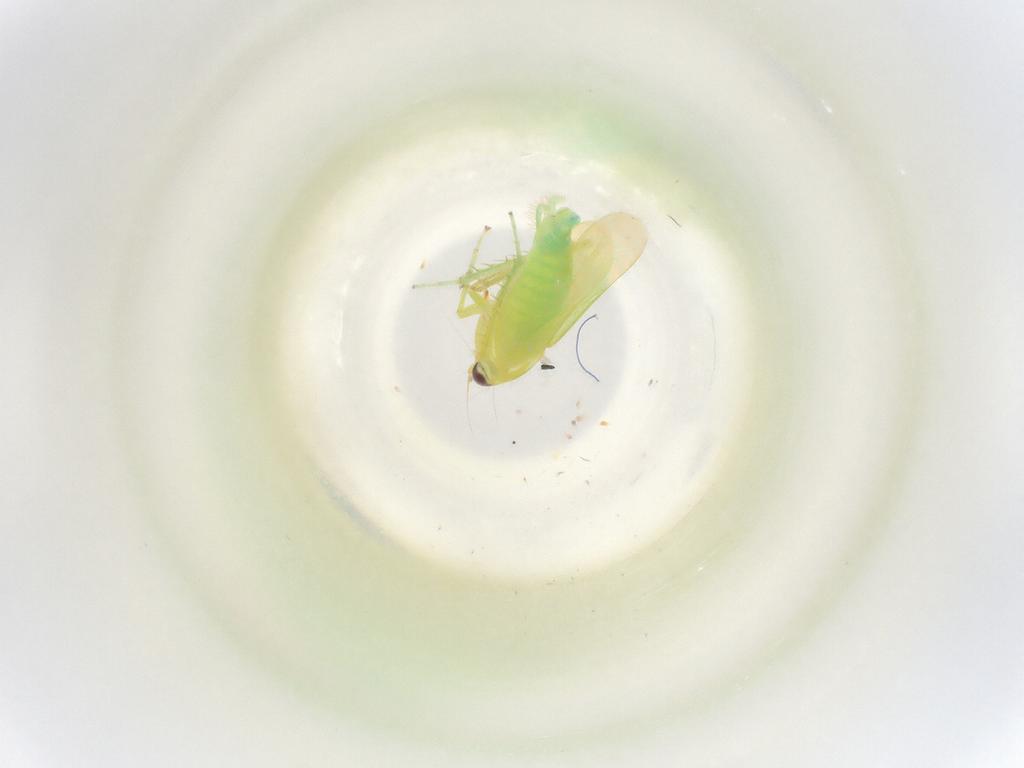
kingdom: Animalia
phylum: Arthropoda
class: Insecta
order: Hemiptera
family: Cicadellidae
